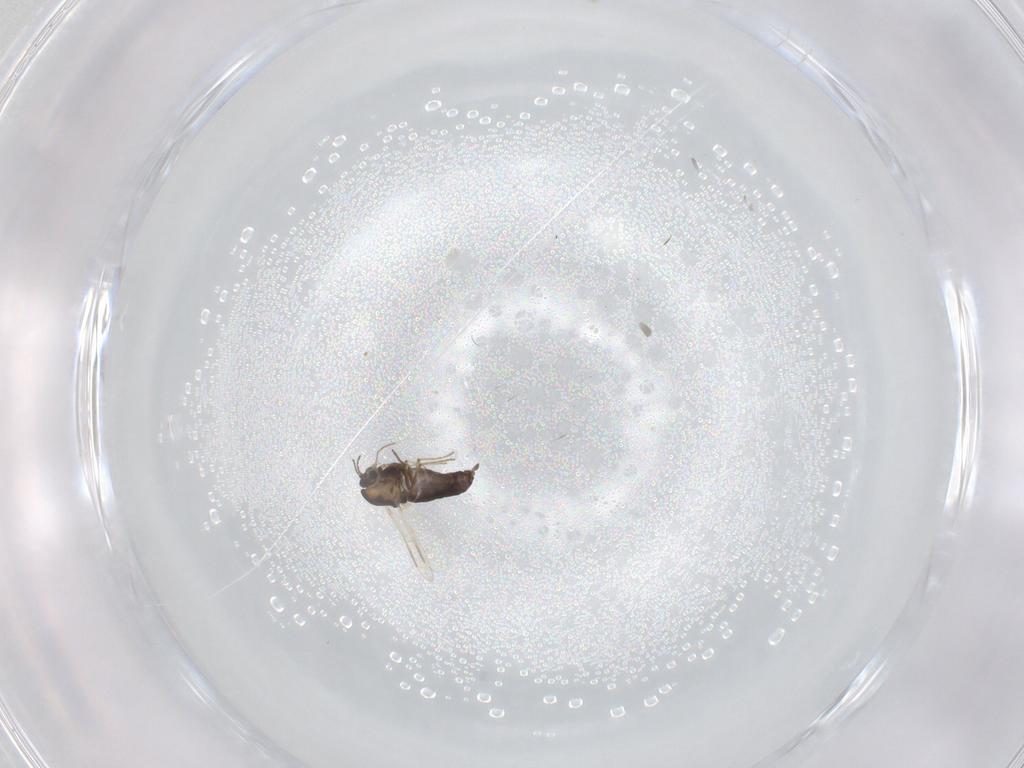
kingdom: Animalia
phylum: Arthropoda
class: Insecta
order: Diptera
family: Chironomidae
